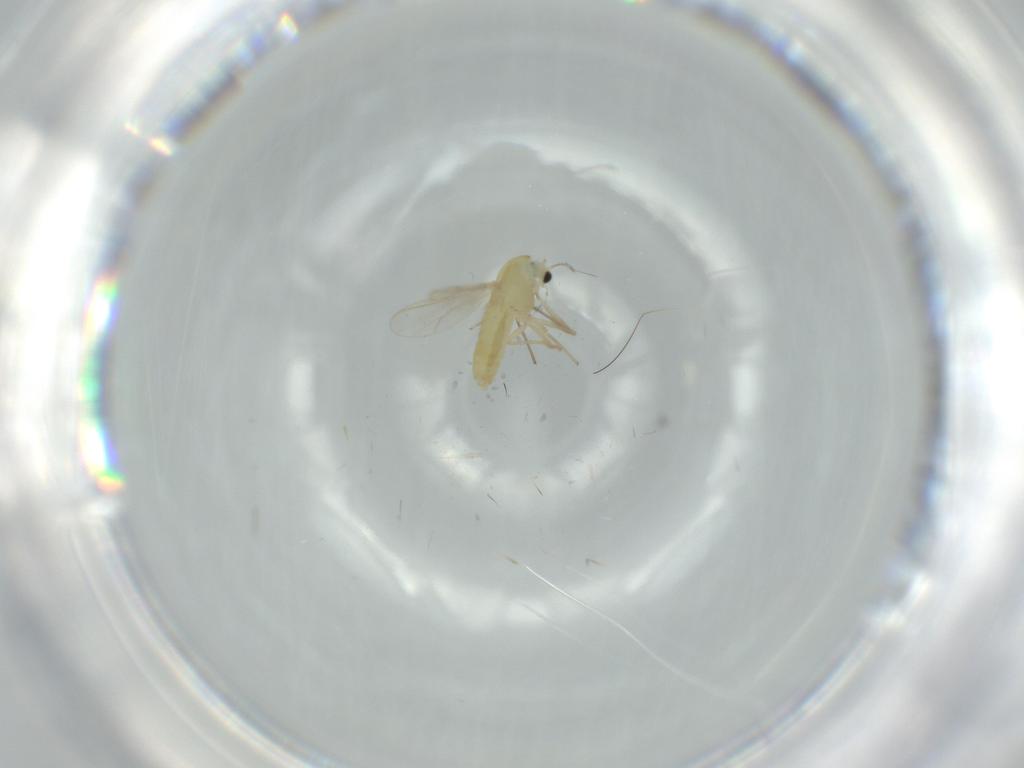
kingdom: Animalia
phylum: Arthropoda
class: Insecta
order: Diptera
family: Chironomidae
